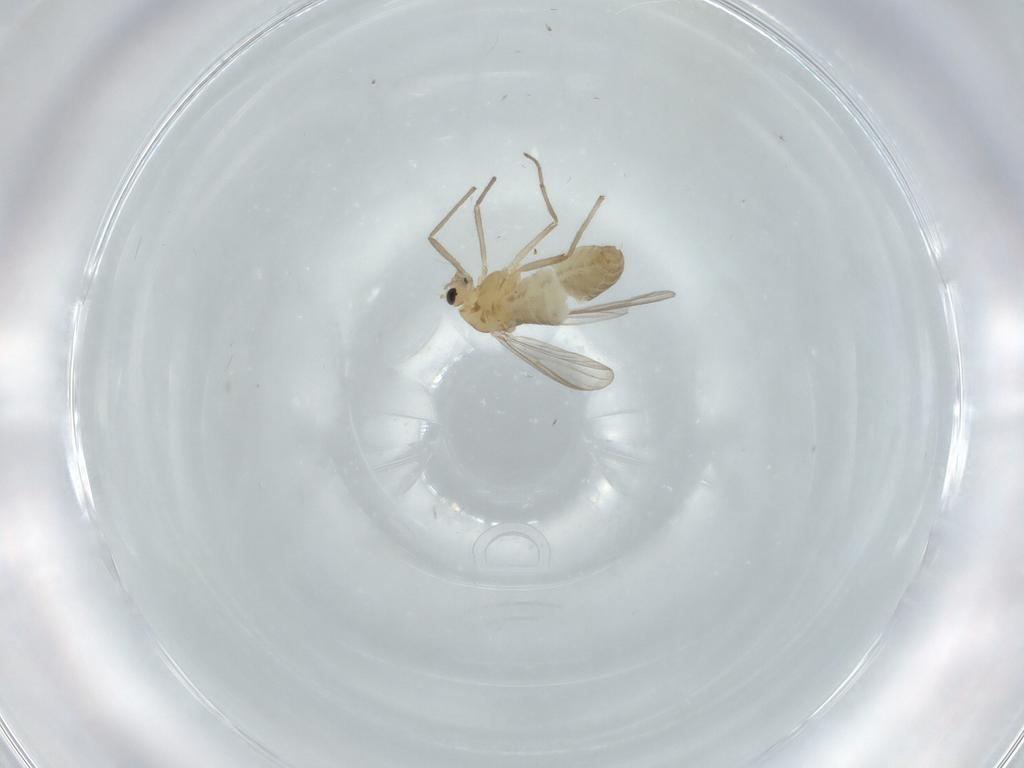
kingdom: Animalia
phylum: Arthropoda
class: Insecta
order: Diptera
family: Chironomidae
